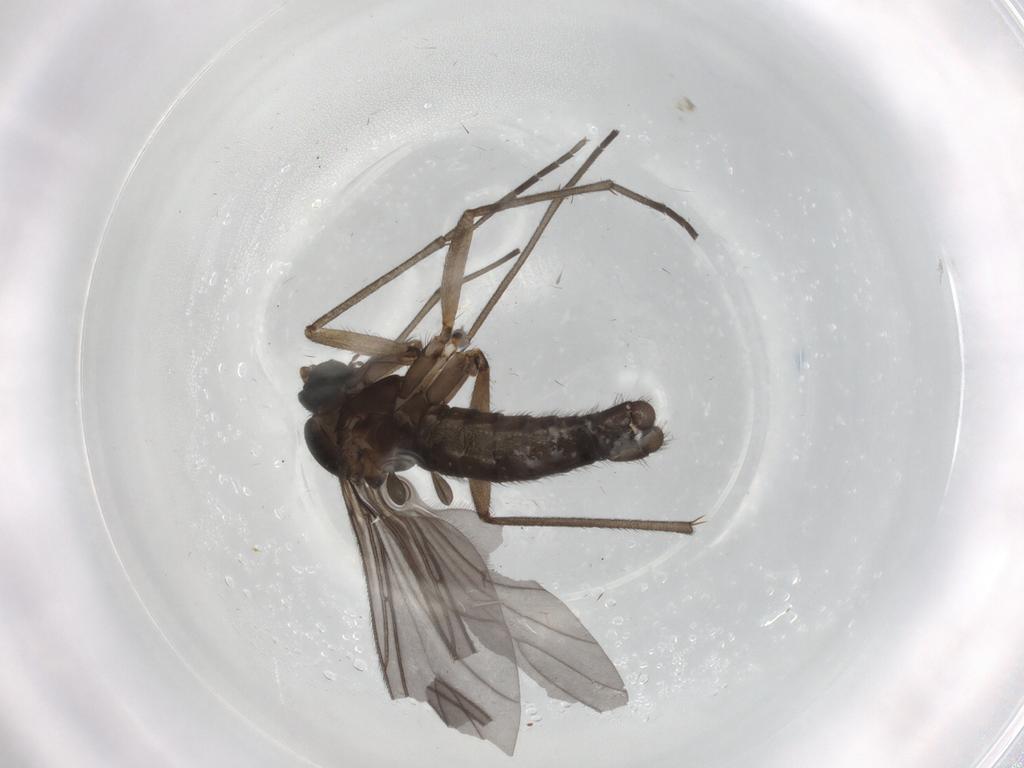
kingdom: Animalia
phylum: Arthropoda
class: Insecta
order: Diptera
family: Sciaridae
